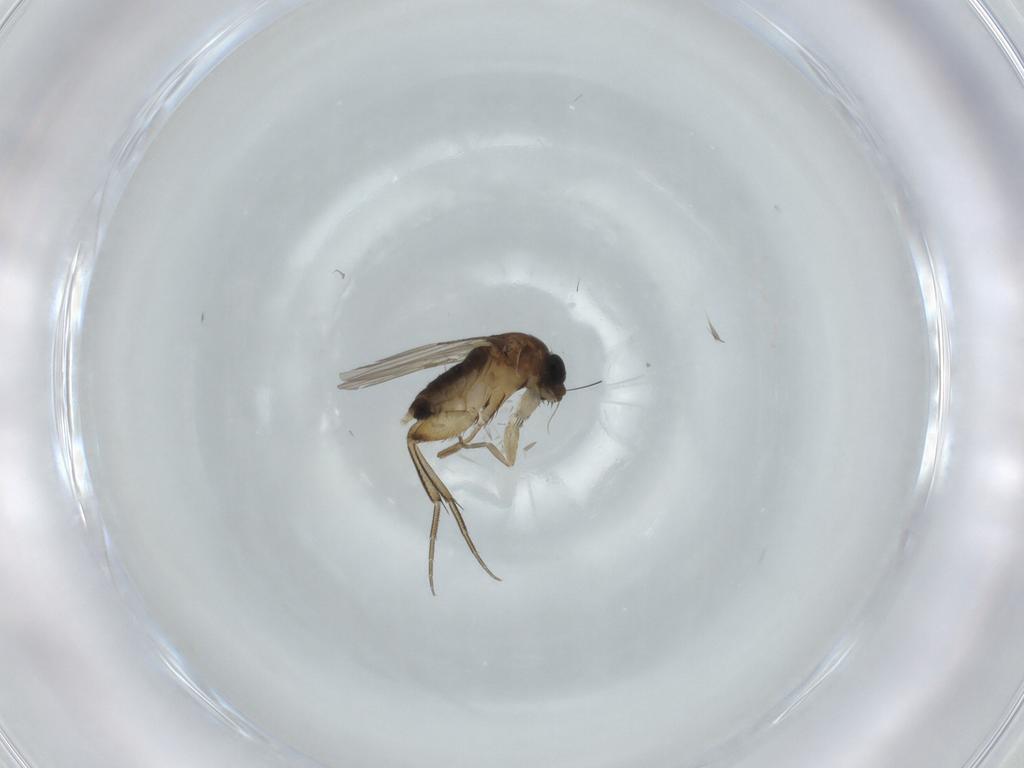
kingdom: Animalia
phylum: Arthropoda
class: Insecta
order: Diptera
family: Phoridae
